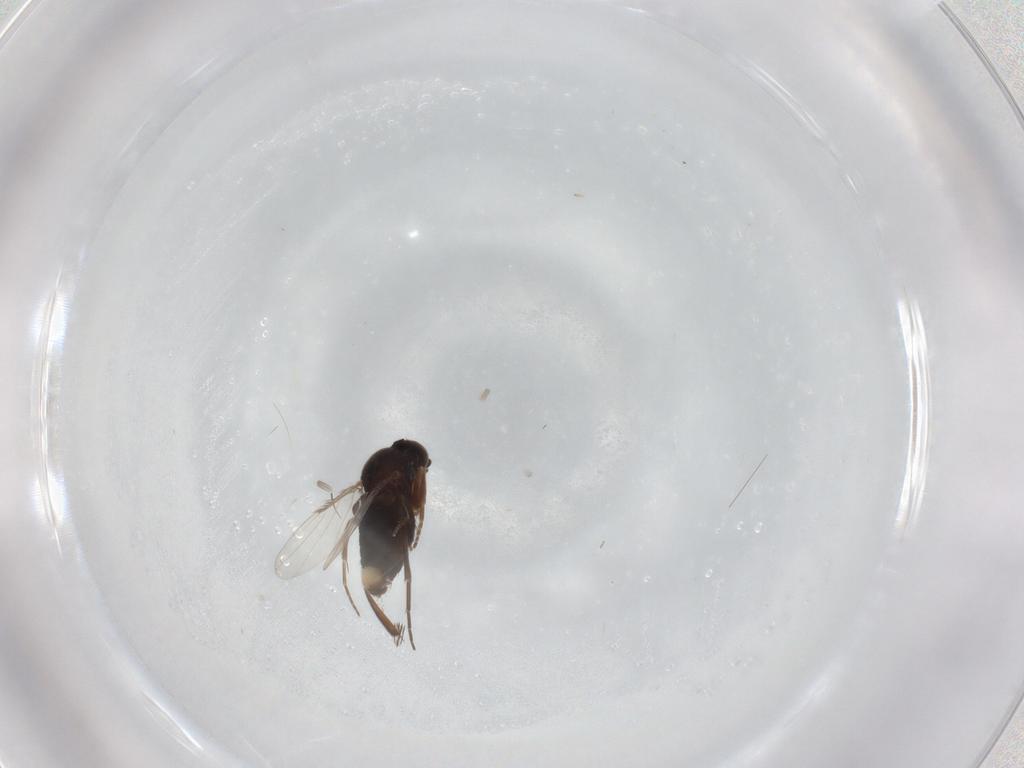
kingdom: Animalia
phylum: Arthropoda
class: Insecta
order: Diptera
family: Phoridae
